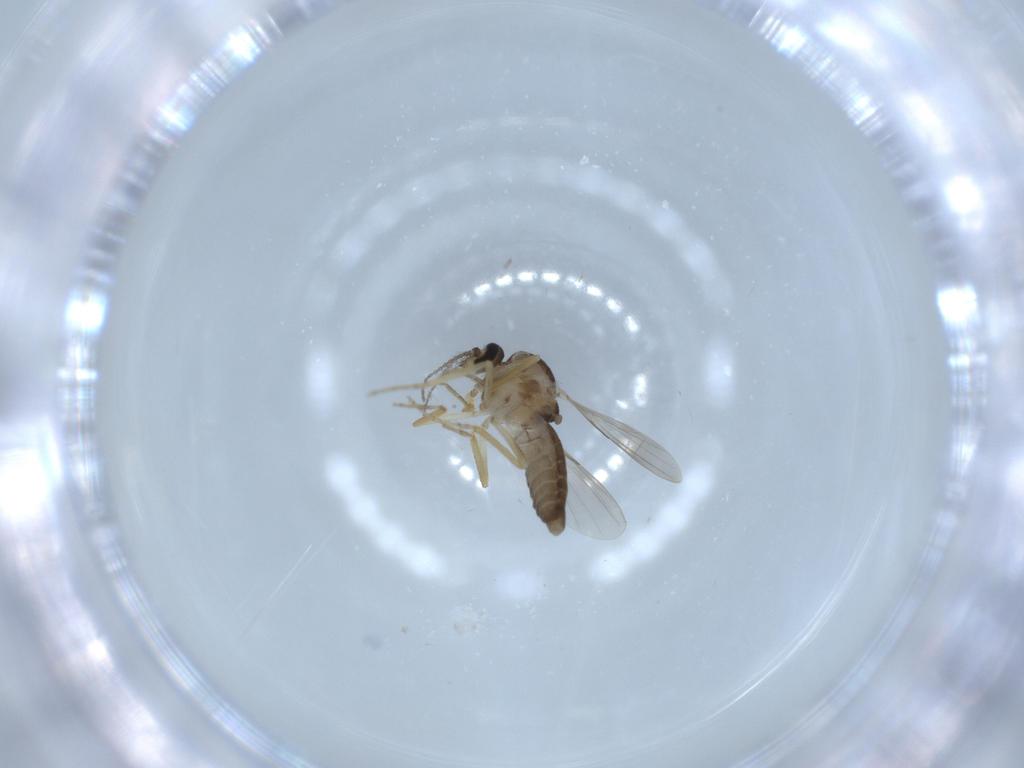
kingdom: Animalia
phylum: Arthropoda
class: Insecta
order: Diptera
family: Ceratopogonidae
